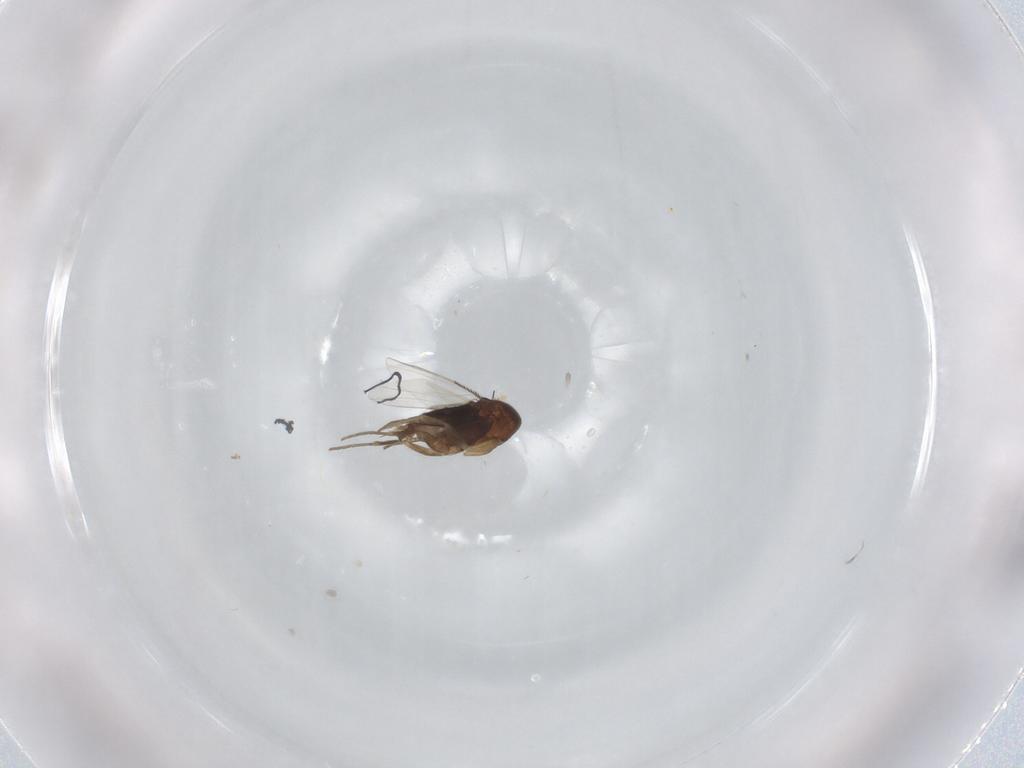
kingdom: Animalia
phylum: Arthropoda
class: Insecta
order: Diptera
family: Phoridae
